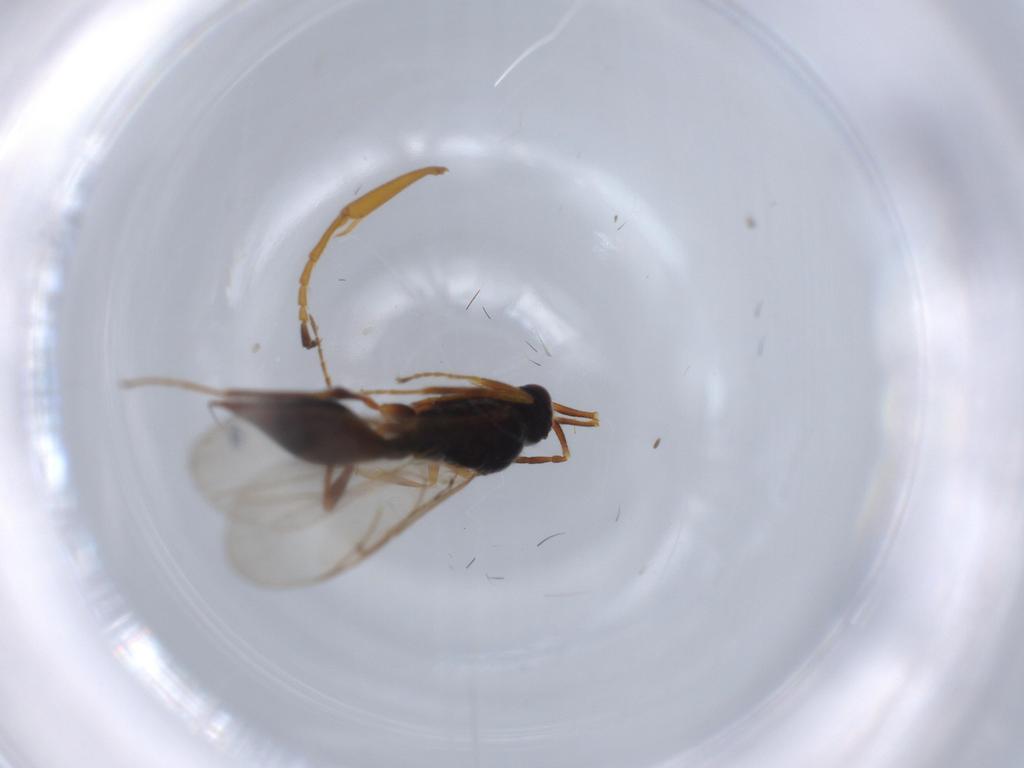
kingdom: Animalia
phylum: Arthropoda
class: Insecta
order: Hymenoptera
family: Ichneumonidae
